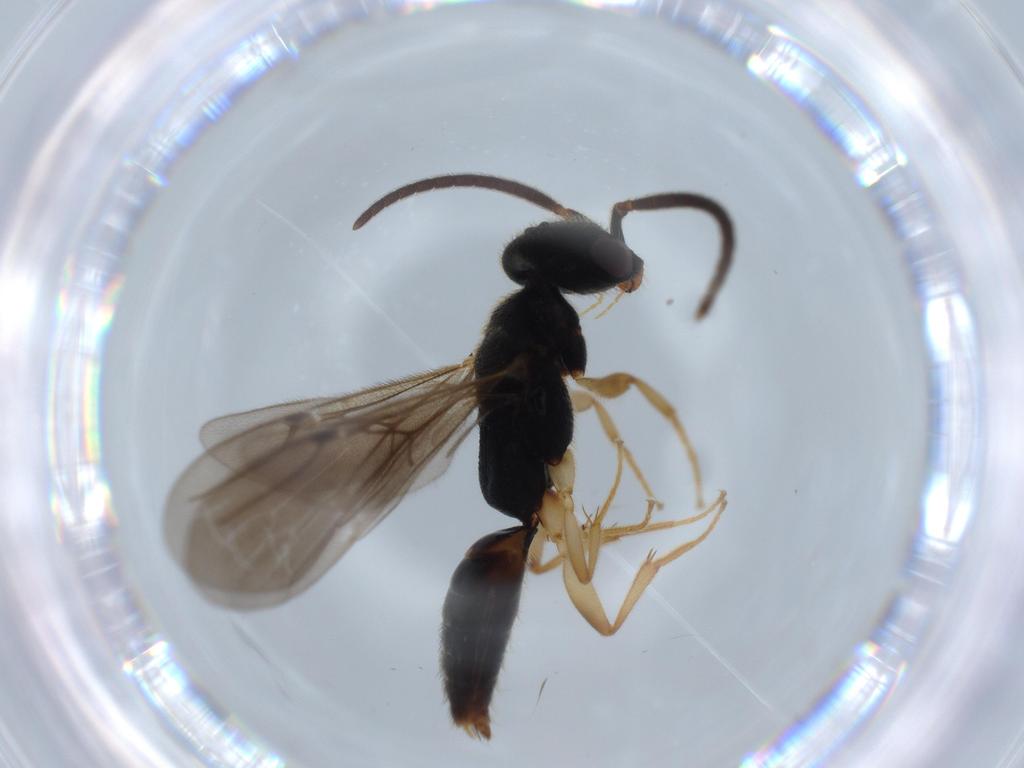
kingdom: Animalia
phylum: Arthropoda
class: Insecta
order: Hymenoptera
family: Bethylidae
